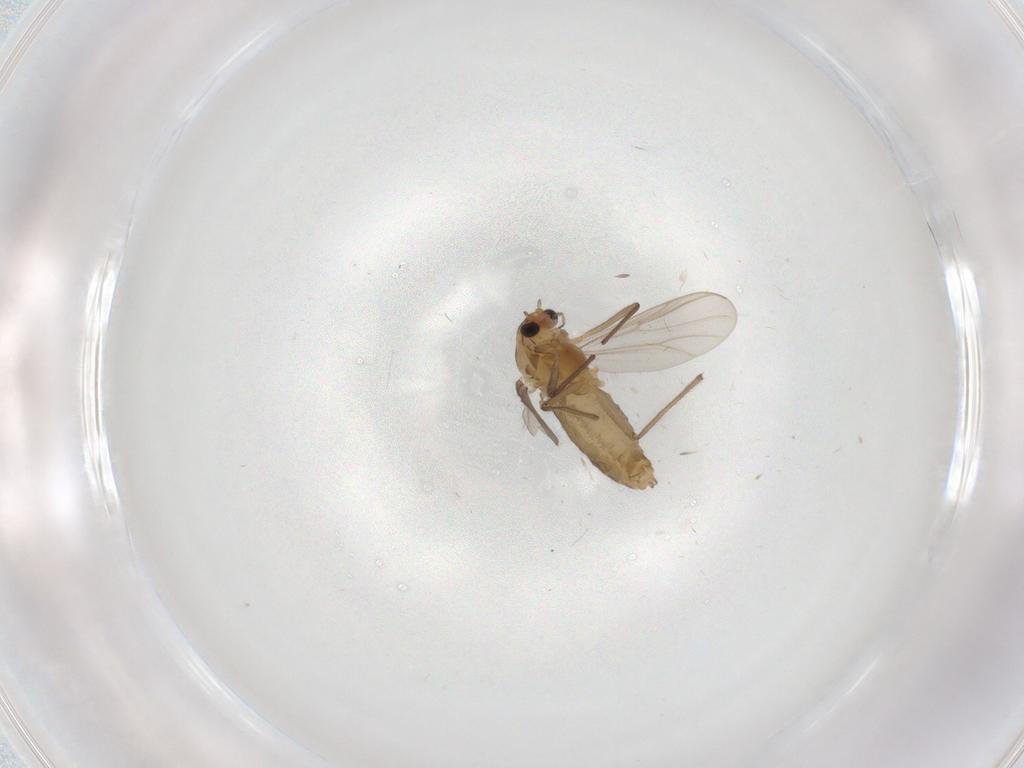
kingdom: Animalia
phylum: Arthropoda
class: Insecta
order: Diptera
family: Chironomidae
